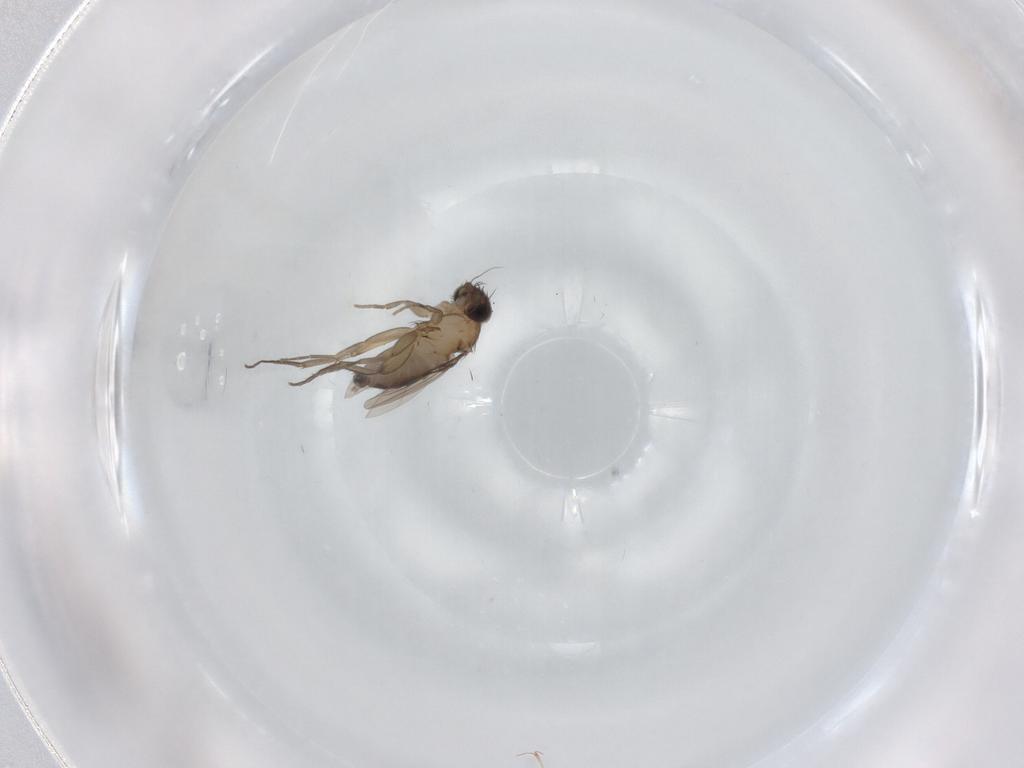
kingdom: Animalia
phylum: Arthropoda
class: Insecta
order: Diptera
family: Phoridae
